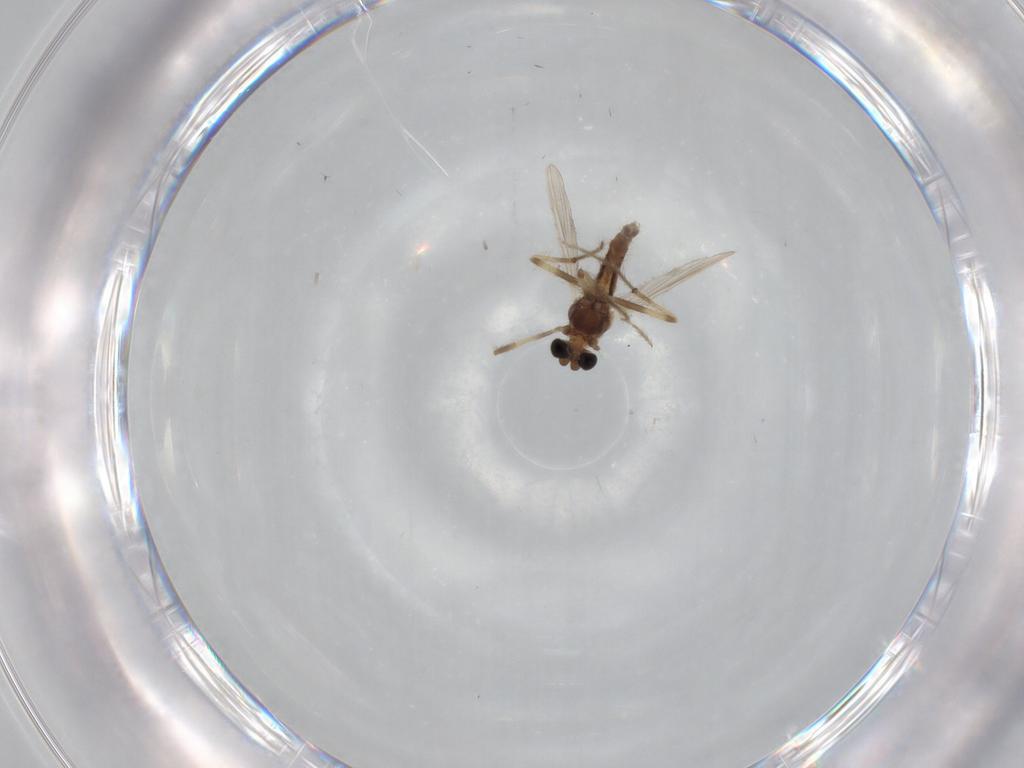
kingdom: Animalia
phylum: Arthropoda
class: Insecta
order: Diptera
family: Chironomidae
